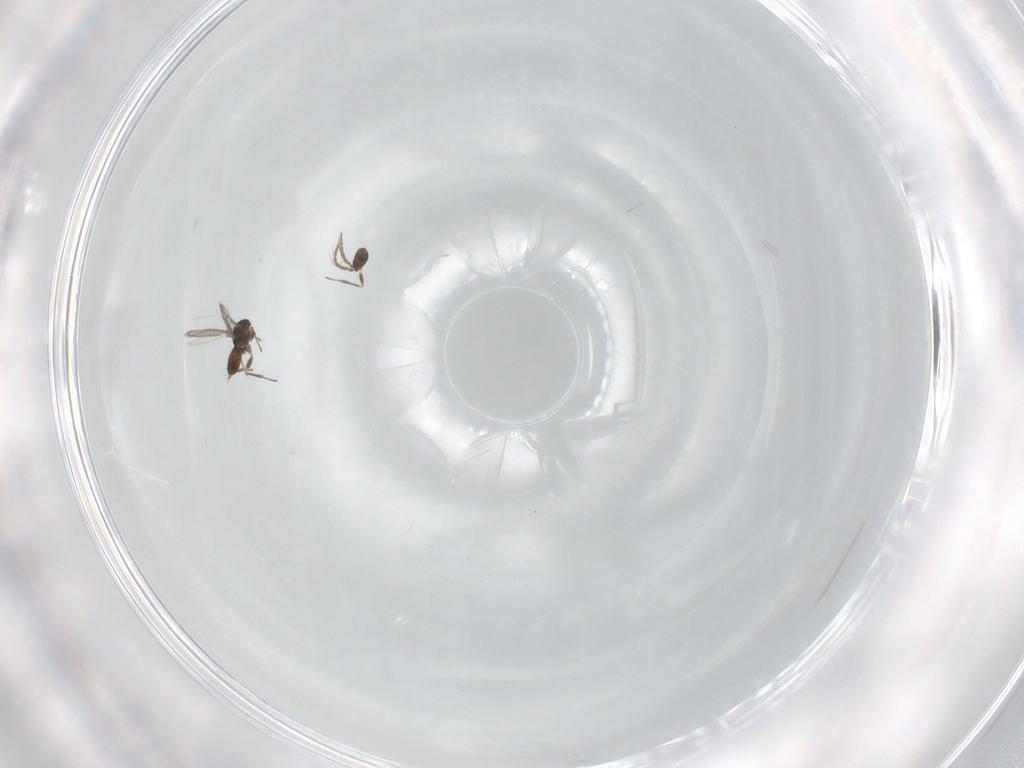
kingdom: Animalia
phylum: Arthropoda
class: Insecta
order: Hymenoptera
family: Eulophidae
